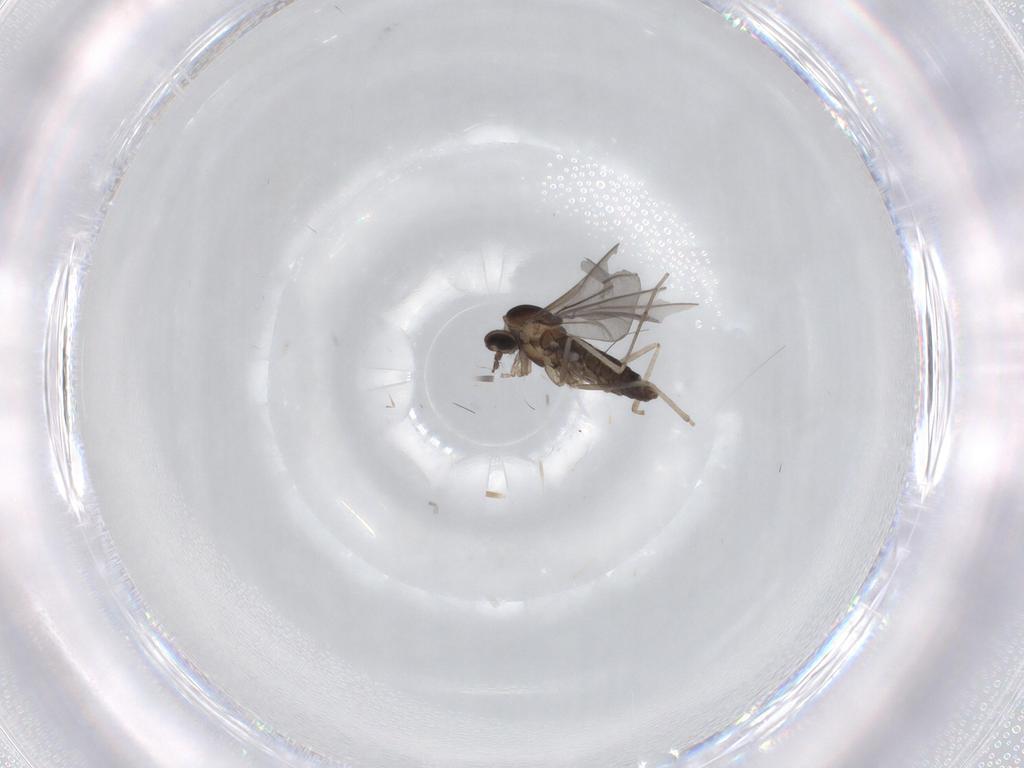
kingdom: Animalia
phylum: Arthropoda
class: Insecta
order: Diptera
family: Cecidomyiidae
